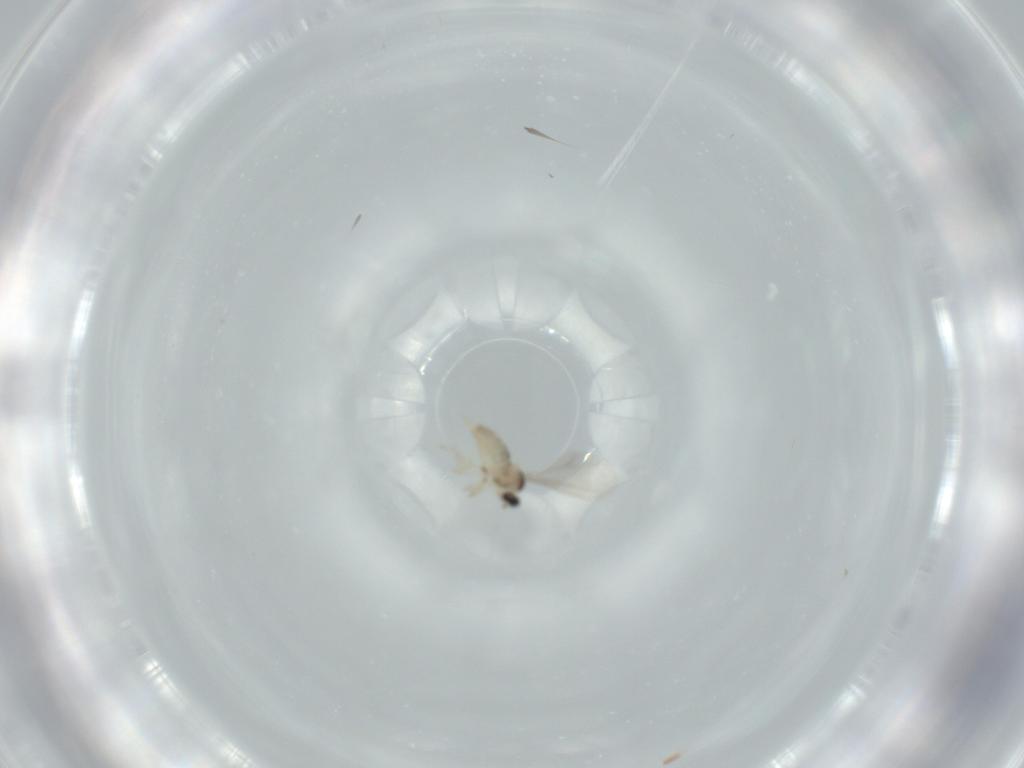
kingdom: Animalia
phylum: Arthropoda
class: Insecta
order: Diptera
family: Cecidomyiidae
